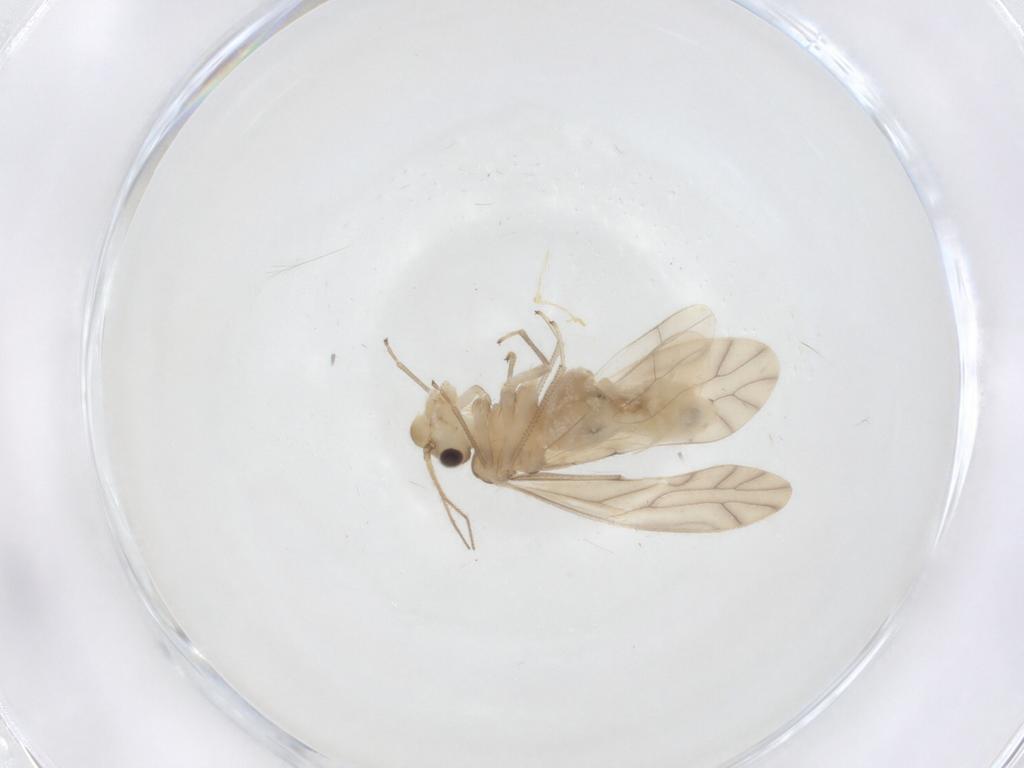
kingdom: Animalia
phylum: Arthropoda
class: Insecta
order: Psocodea
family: Caeciliusidae
